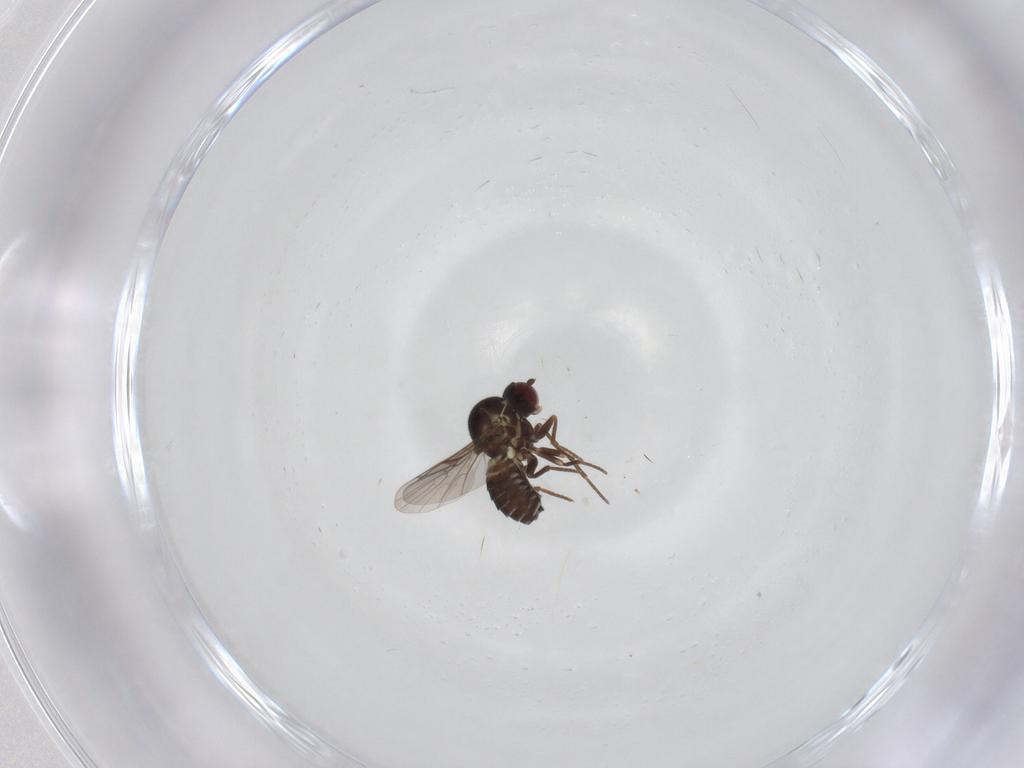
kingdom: Animalia
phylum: Arthropoda
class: Insecta
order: Diptera
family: Mythicomyiidae
